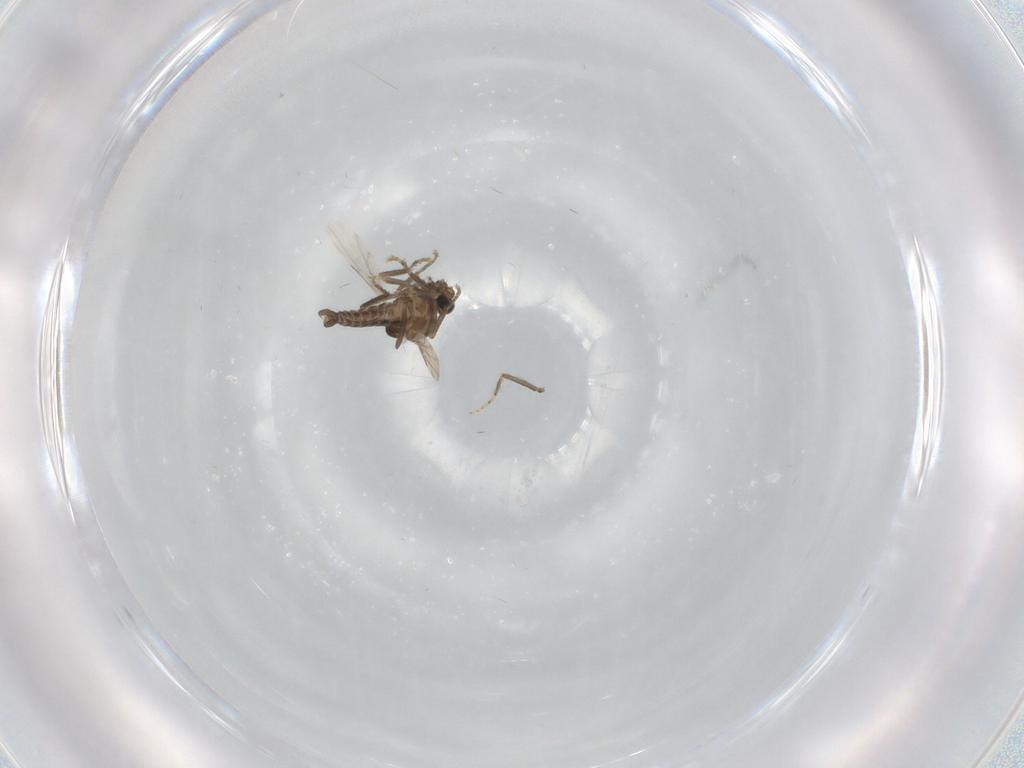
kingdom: Animalia
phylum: Arthropoda
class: Insecta
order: Diptera
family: Ceratopogonidae
